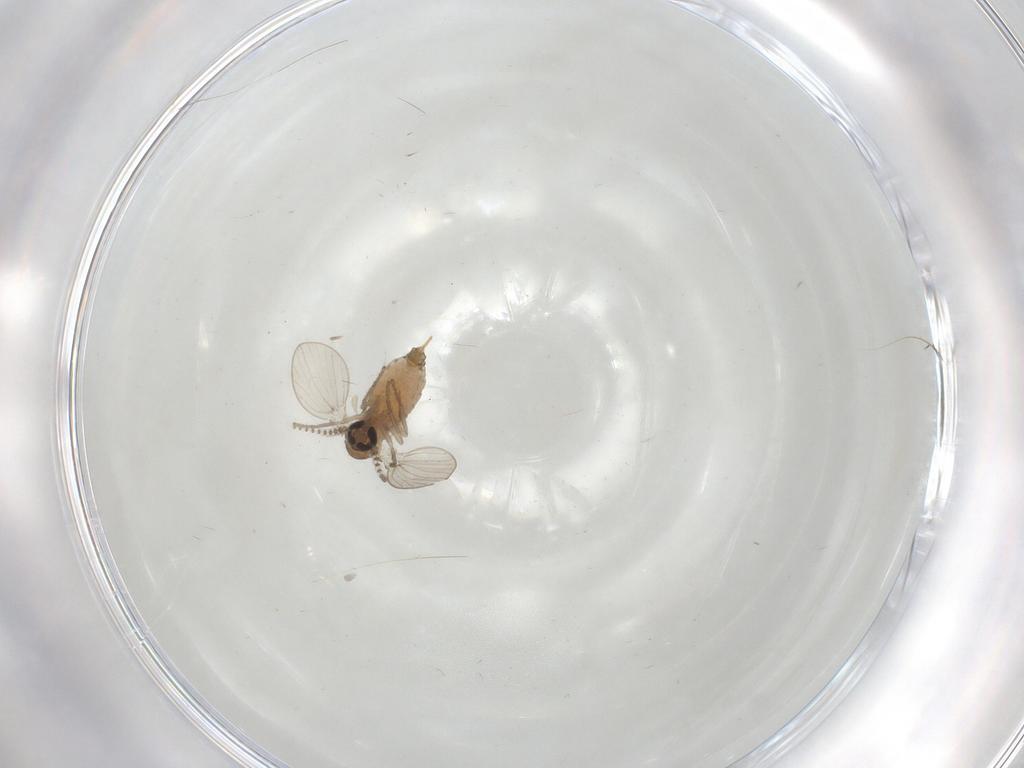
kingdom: Animalia
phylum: Arthropoda
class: Insecta
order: Diptera
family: Psychodidae
